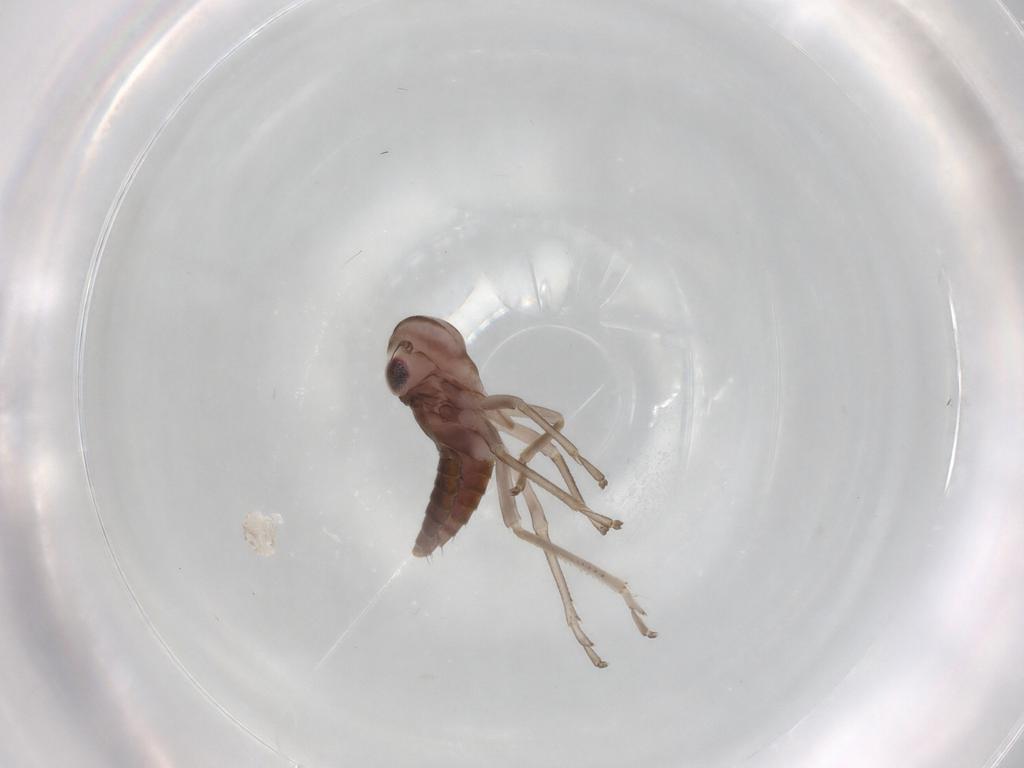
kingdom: Animalia
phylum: Arthropoda
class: Insecta
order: Hemiptera
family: Cicadellidae
